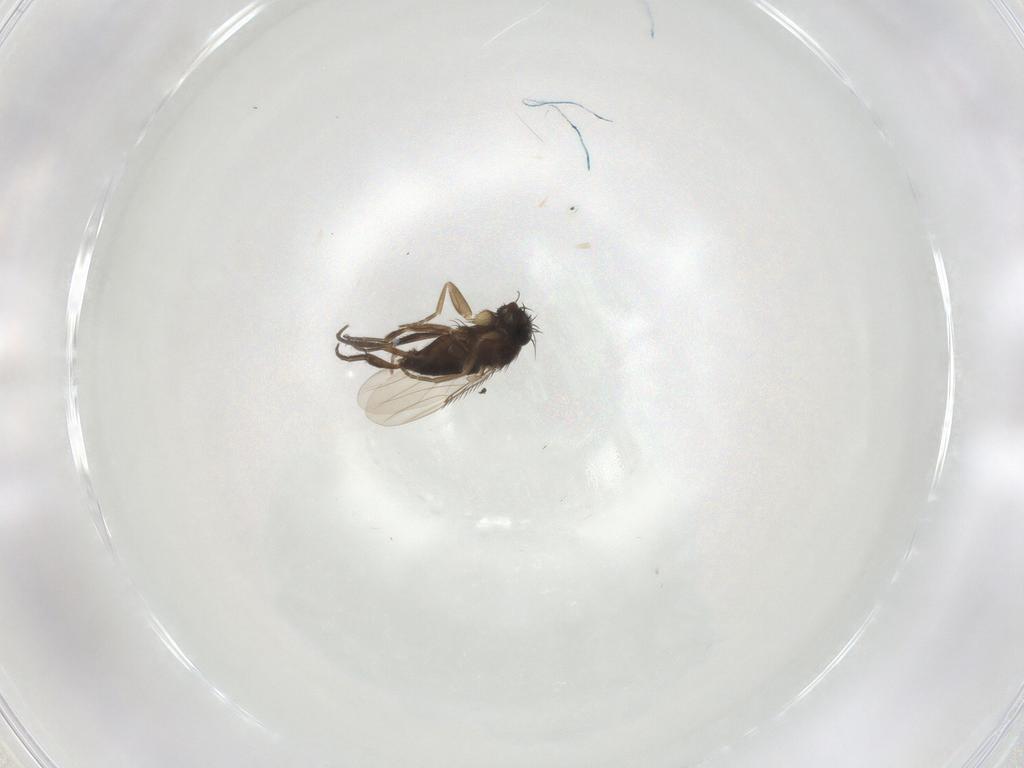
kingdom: Animalia
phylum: Arthropoda
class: Insecta
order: Diptera
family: Phoridae
